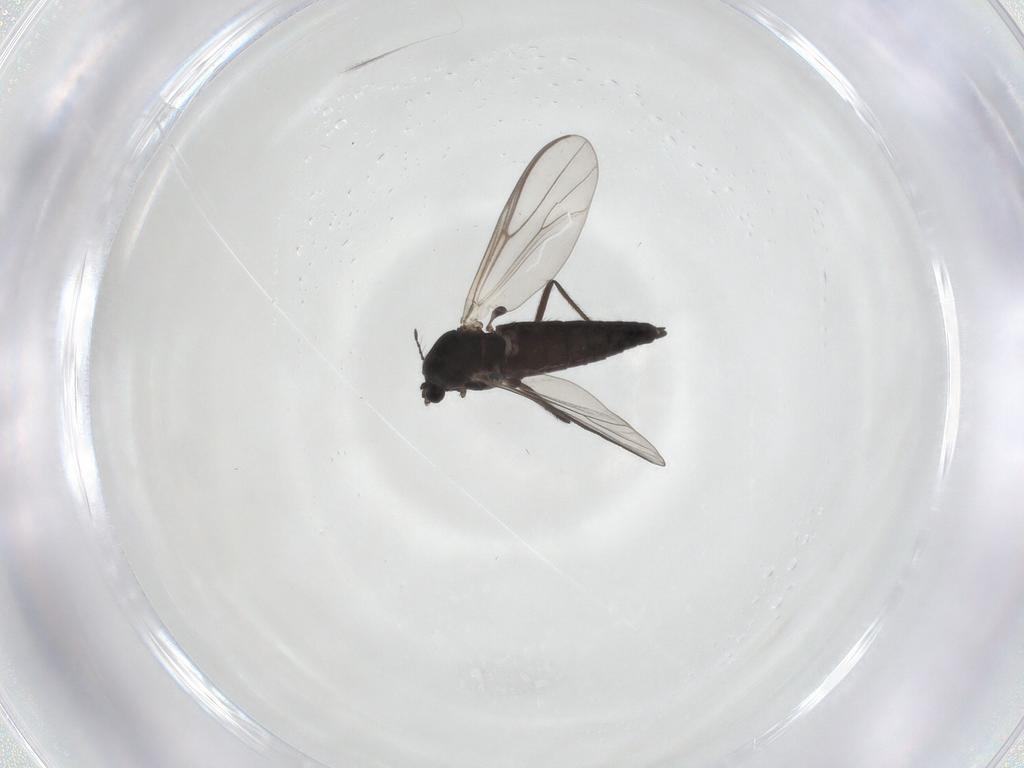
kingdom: Animalia
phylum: Arthropoda
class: Insecta
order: Diptera
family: Chironomidae
